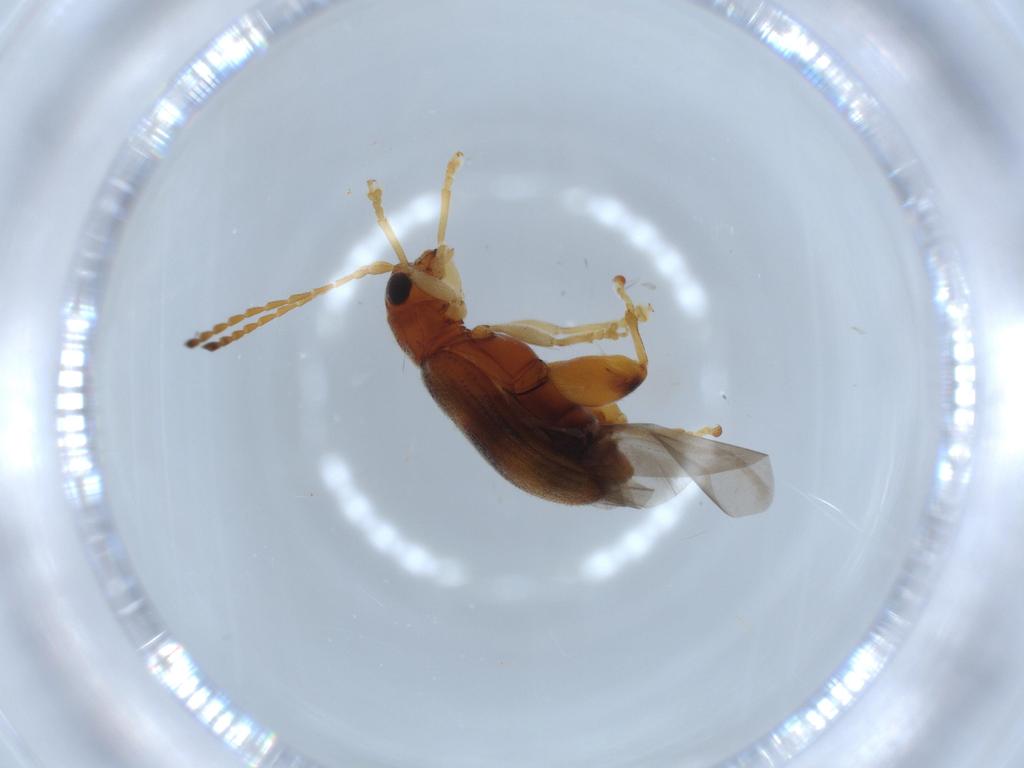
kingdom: Animalia
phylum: Arthropoda
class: Insecta
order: Coleoptera
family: Chrysomelidae
